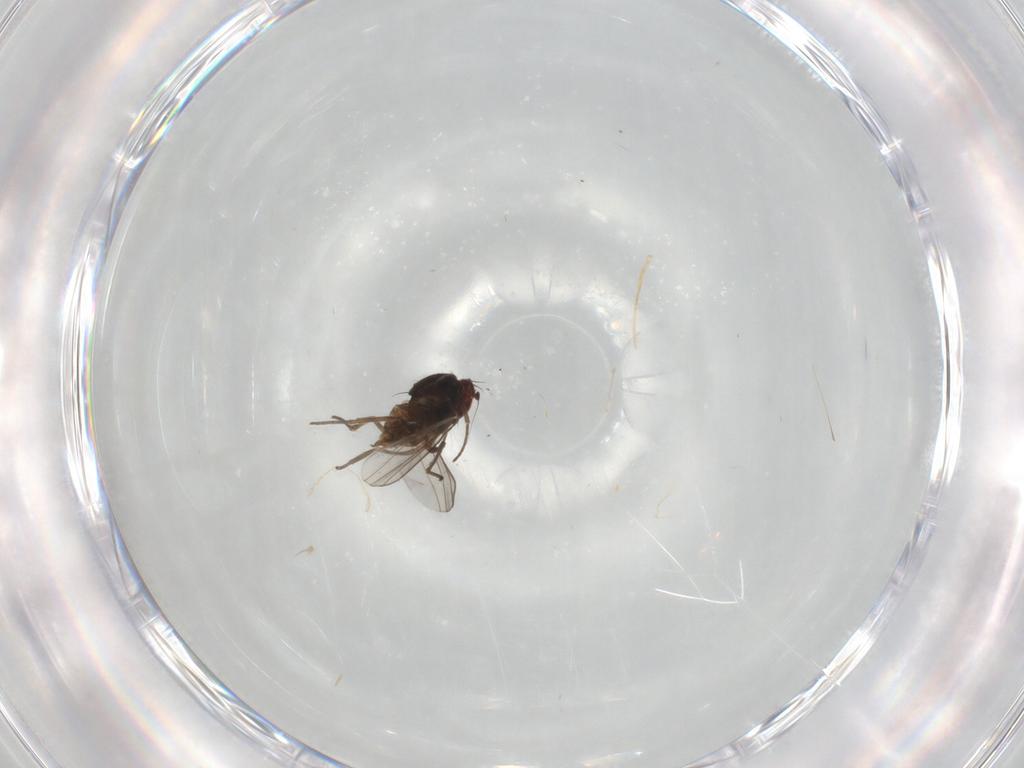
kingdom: Animalia
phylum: Arthropoda
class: Insecta
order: Diptera
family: Dolichopodidae
